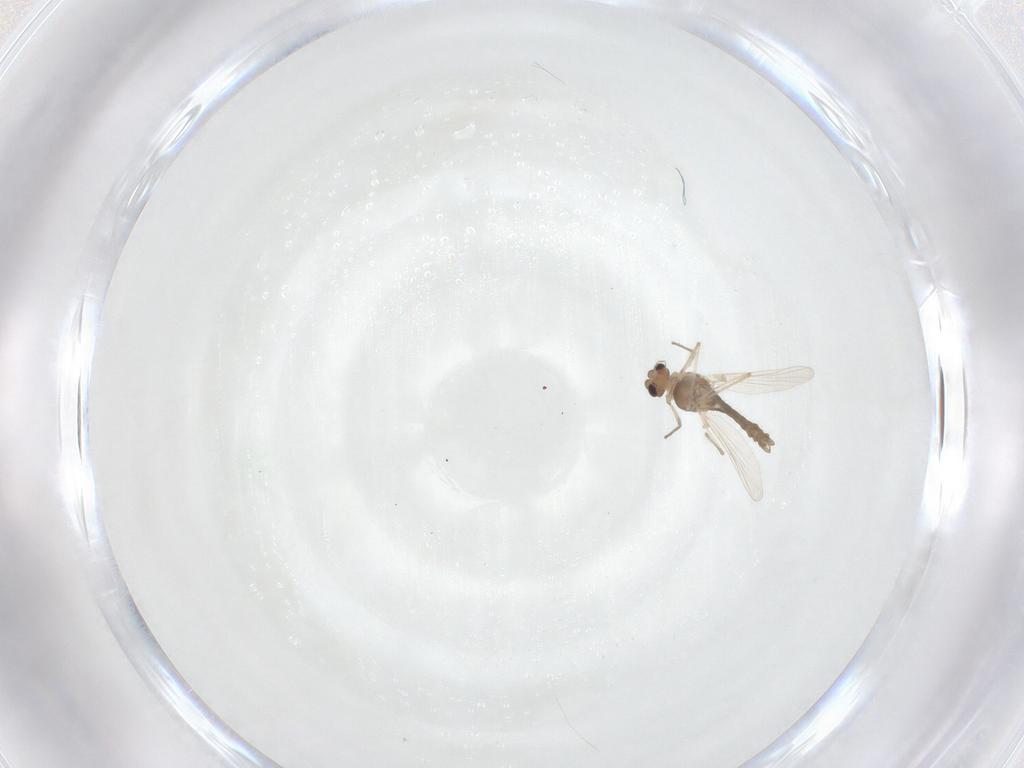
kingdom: Animalia
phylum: Arthropoda
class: Insecta
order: Diptera
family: Chironomidae
